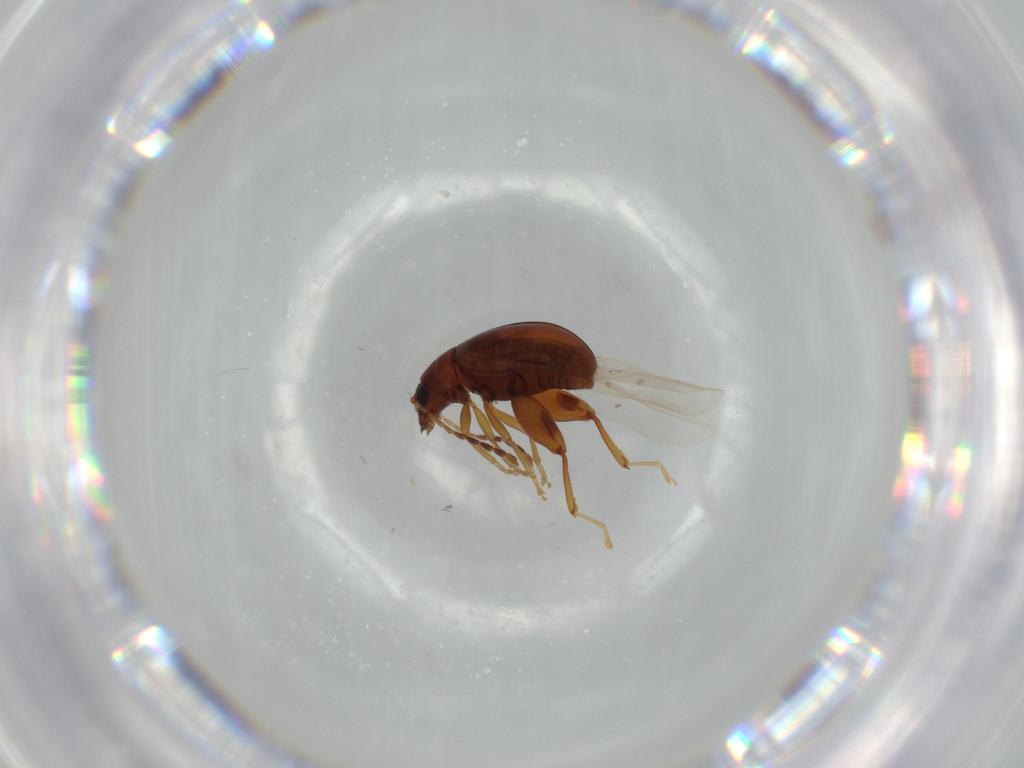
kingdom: Animalia
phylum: Arthropoda
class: Insecta
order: Coleoptera
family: Chrysomelidae
